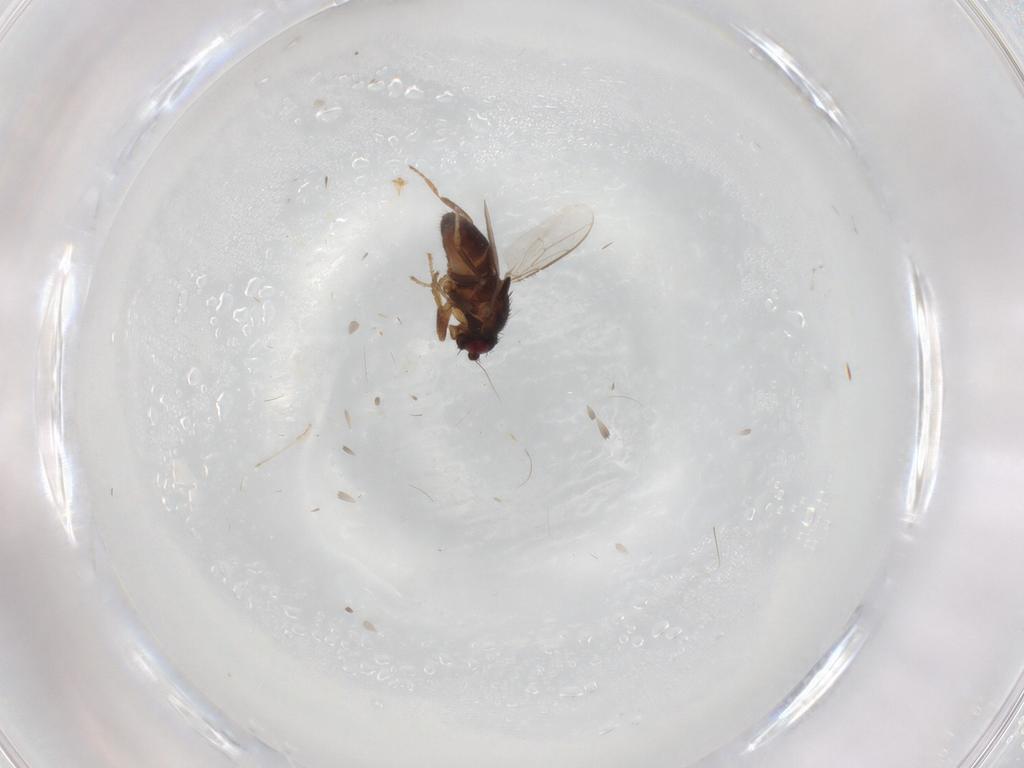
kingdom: Animalia
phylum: Arthropoda
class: Insecta
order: Diptera
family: Sphaeroceridae
